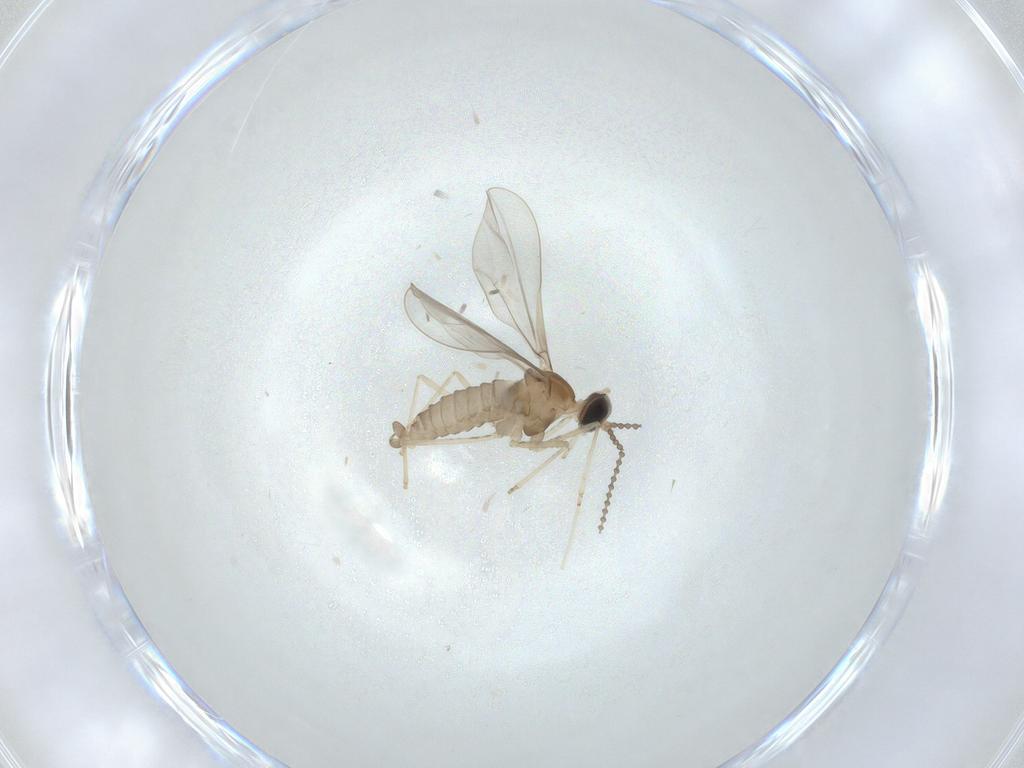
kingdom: Animalia
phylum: Arthropoda
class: Insecta
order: Diptera
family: Cecidomyiidae
